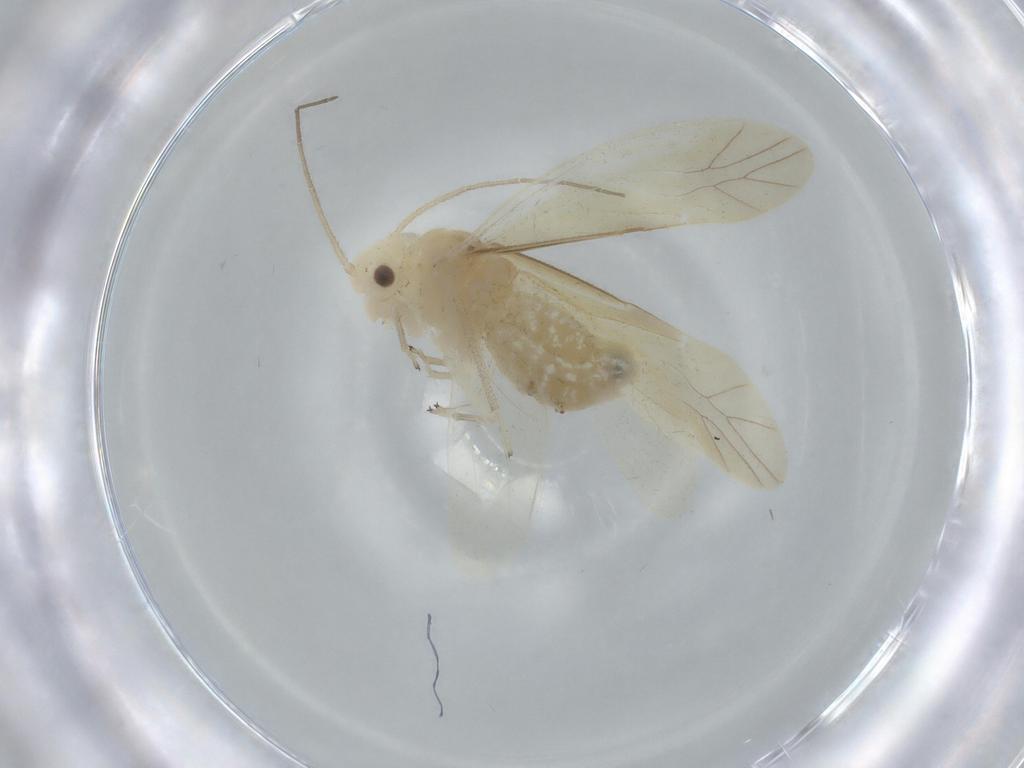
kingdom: Animalia
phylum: Arthropoda
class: Insecta
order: Psocodea
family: Caeciliusidae
